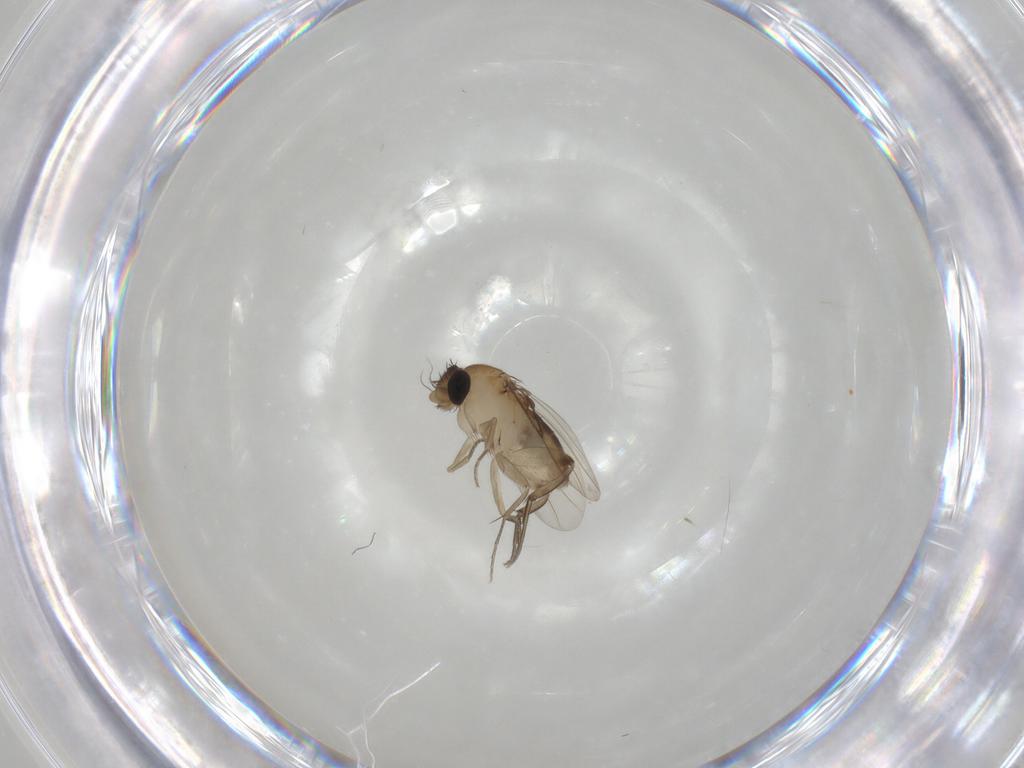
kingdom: Animalia
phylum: Arthropoda
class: Insecta
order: Diptera
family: Phoridae
